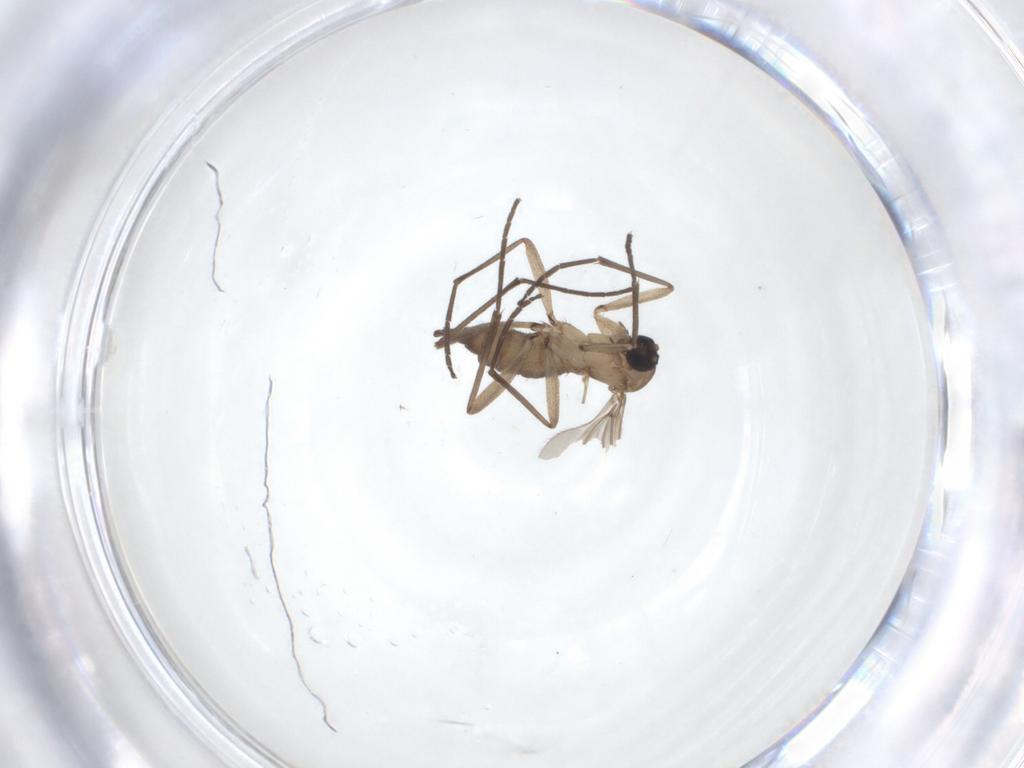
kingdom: Animalia
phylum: Arthropoda
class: Insecta
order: Diptera
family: Sciaridae
